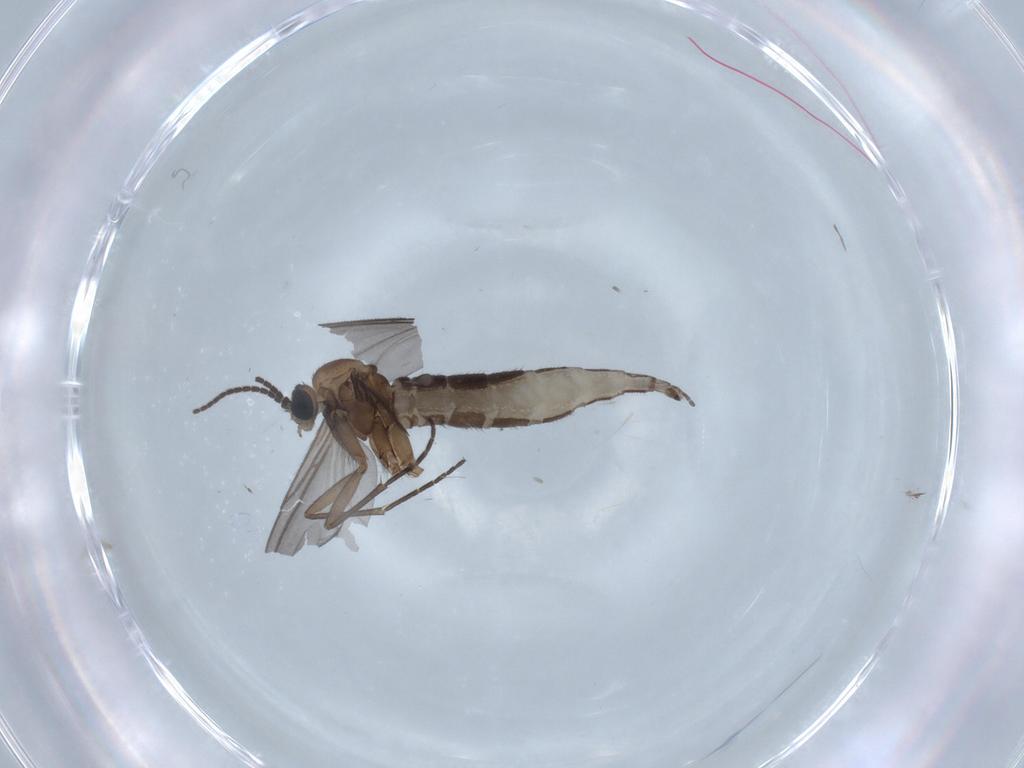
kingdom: Animalia
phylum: Arthropoda
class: Insecta
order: Diptera
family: Sciaridae
